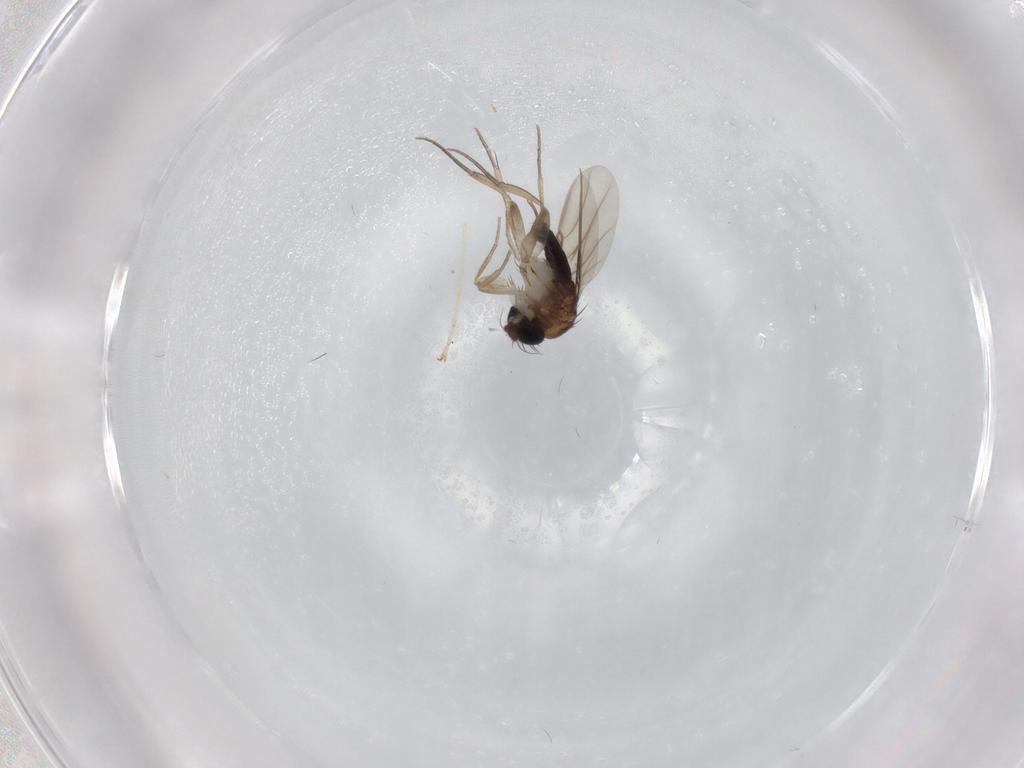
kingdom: Animalia
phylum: Arthropoda
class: Insecta
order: Diptera
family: Phoridae
